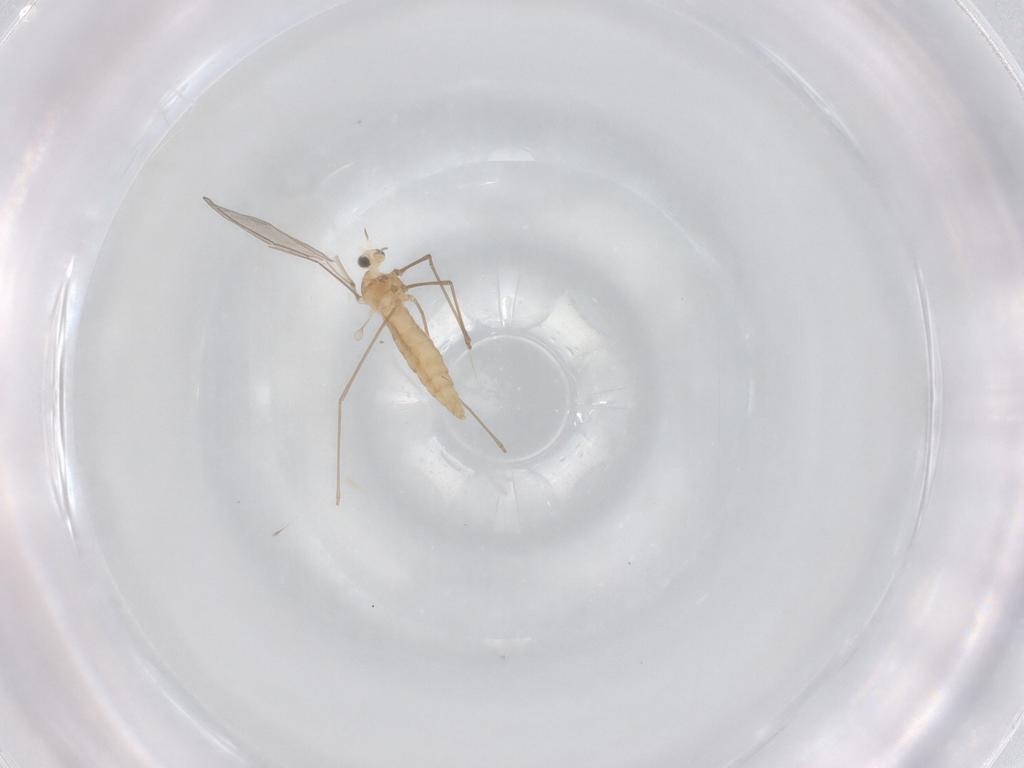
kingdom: Animalia
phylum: Arthropoda
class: Insecta
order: Diptera
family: Cecidomyiidae
